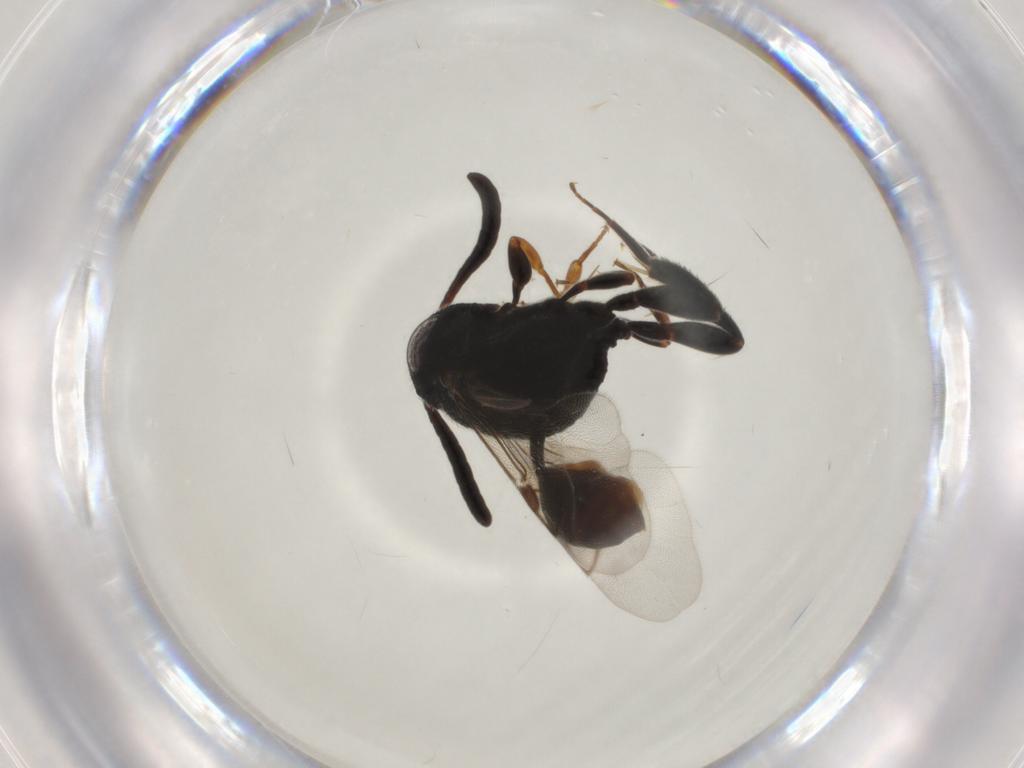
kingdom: Animalia
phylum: Arthropoda
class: Insecta
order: Hymenoptera
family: Evaniidae
